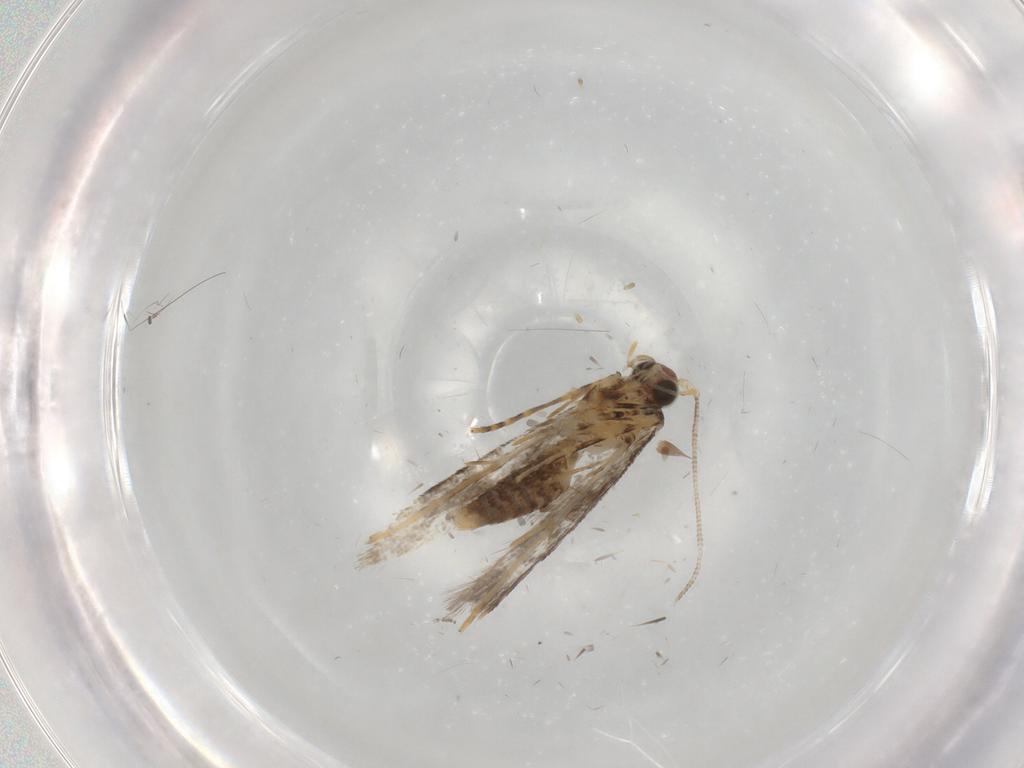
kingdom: Animalia
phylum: Arthropoda
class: Insecta
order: Lepidoptera
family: Tineidae
